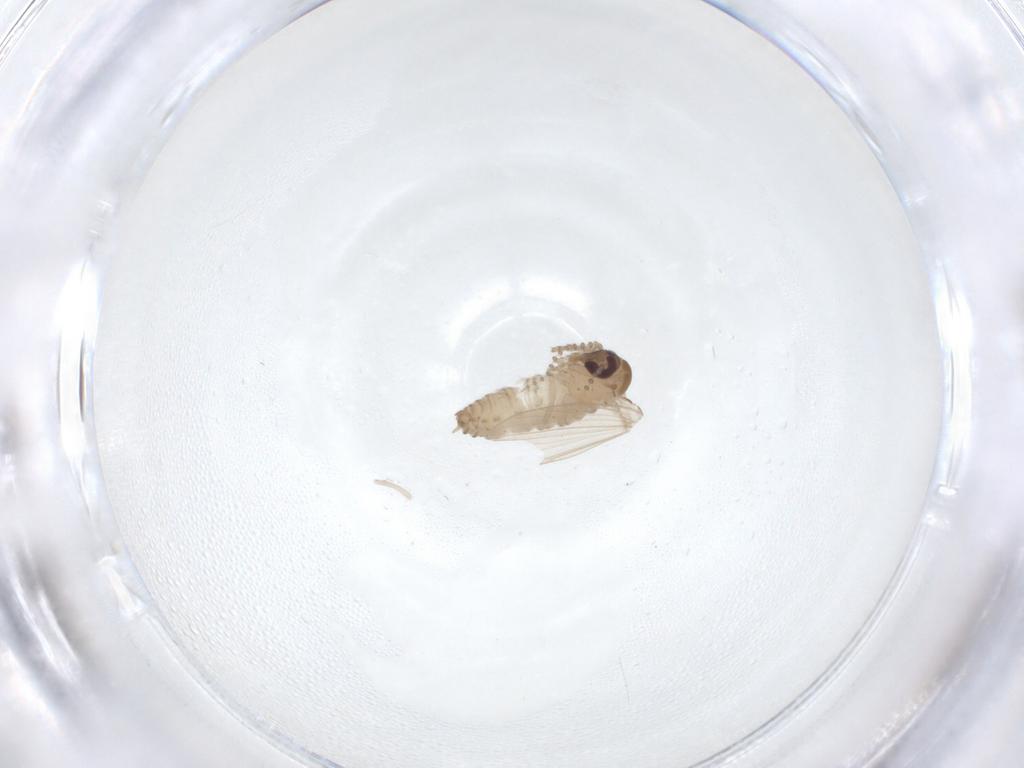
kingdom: Animalia
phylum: Arthropoda
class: Insecta
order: Diptera
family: Psychodidae
